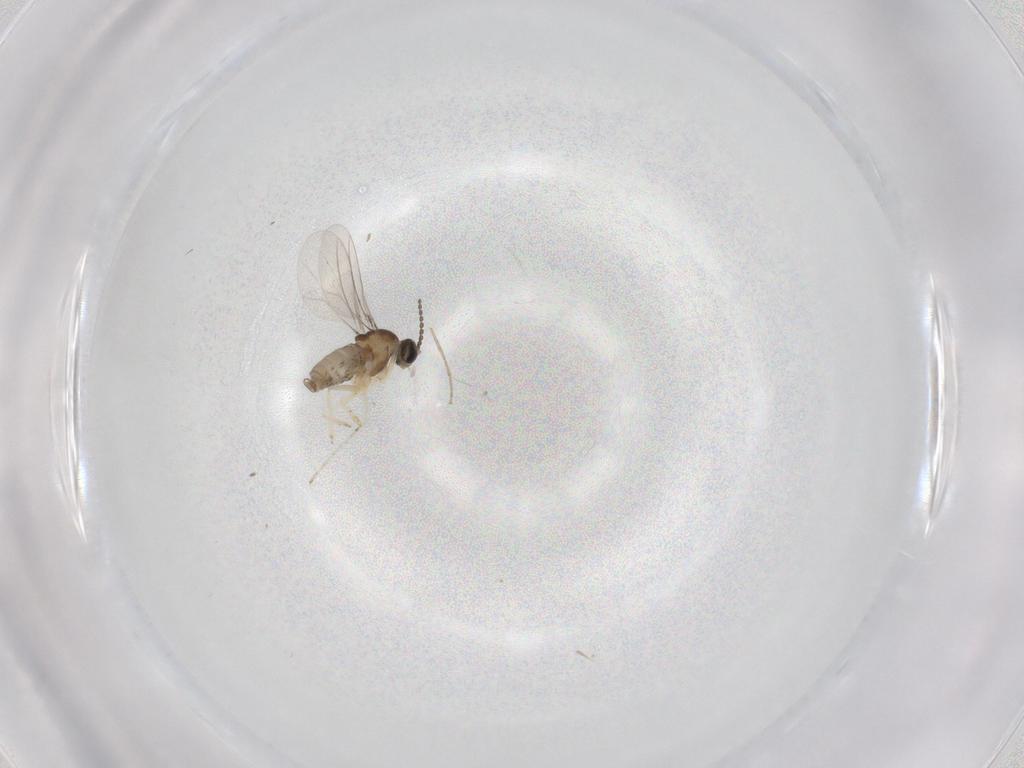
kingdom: Animalia
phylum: Arthropoda
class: Insecta
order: Diptera
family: Cecidomyiidae
